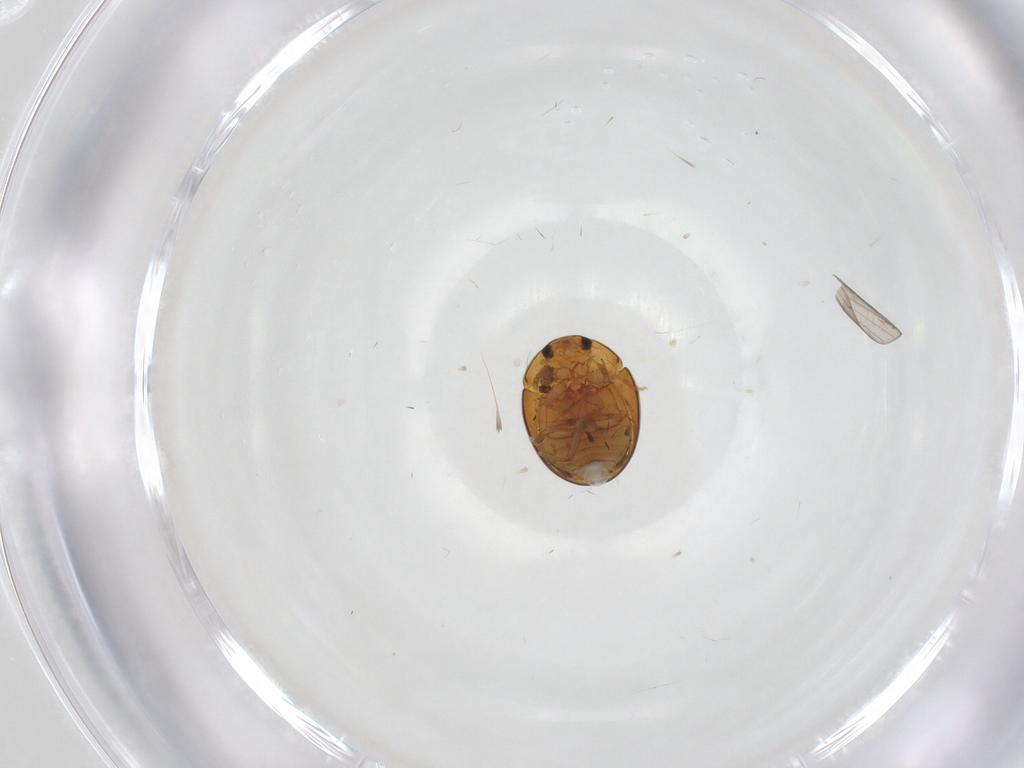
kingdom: Animalia
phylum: Arthropoda
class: Insecta
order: Coleoptera
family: Phalacridae
